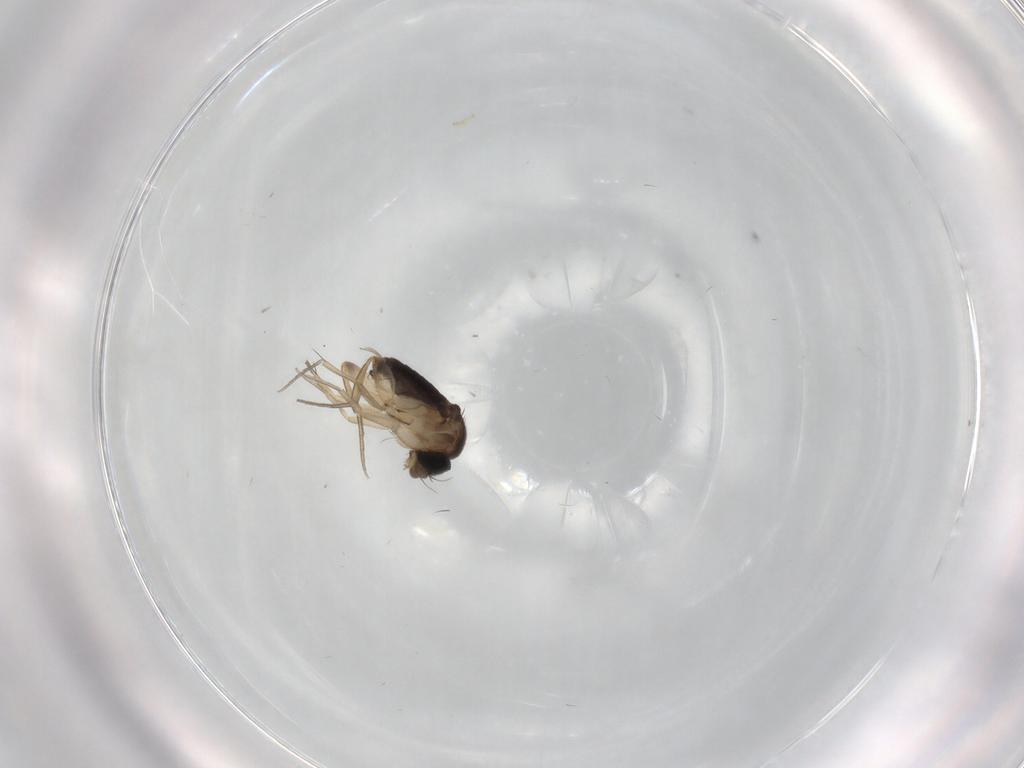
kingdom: Animalia
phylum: Arthropoda
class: Insecta
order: Diptera
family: Phoridae
